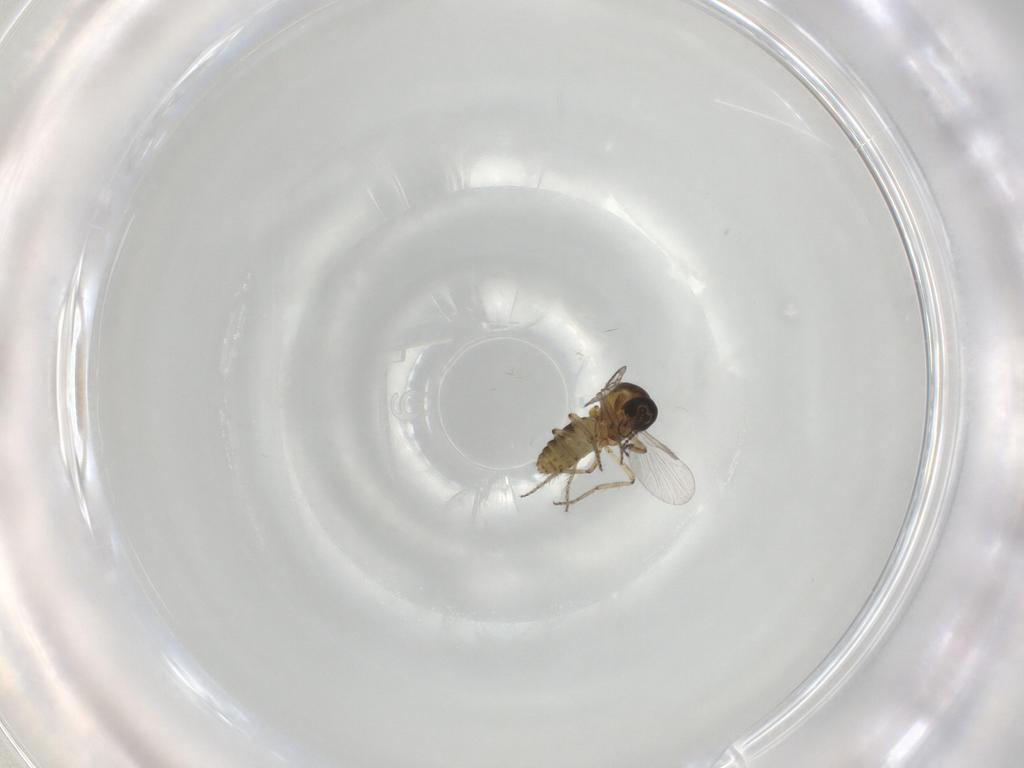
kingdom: Animalia
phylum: Arthropoda
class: Insecta
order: Diptera
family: Ceratopogonidae
